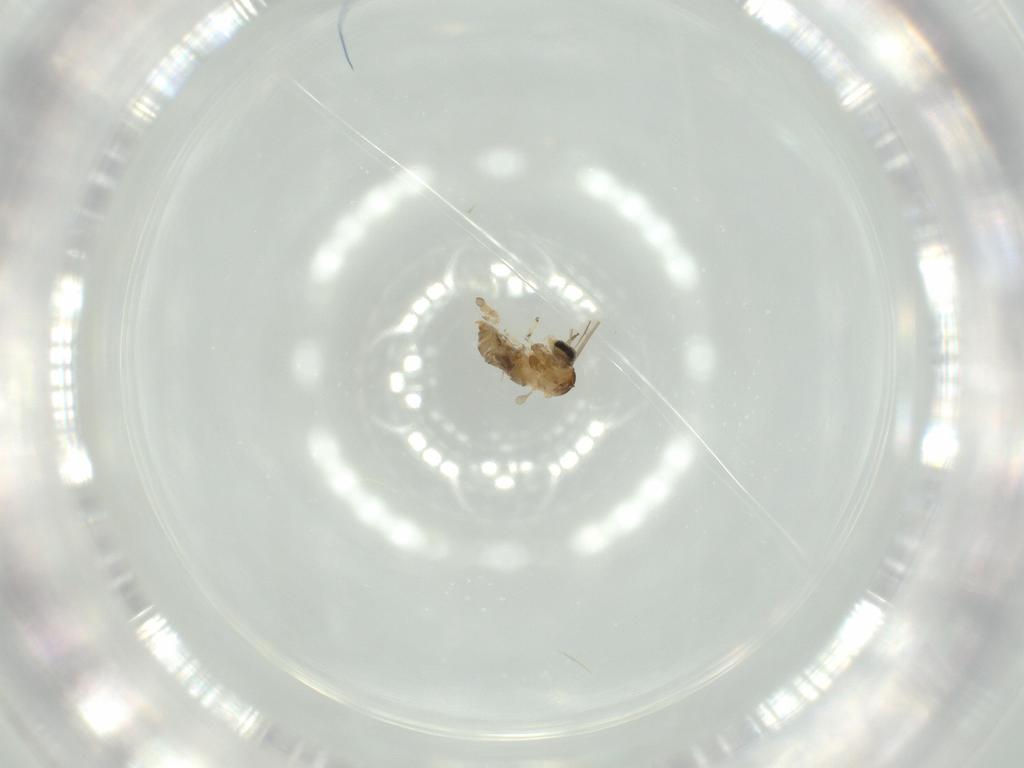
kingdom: Animalia
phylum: Arthropoda
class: Insecta
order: Diptera
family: Cecidomyiidae
